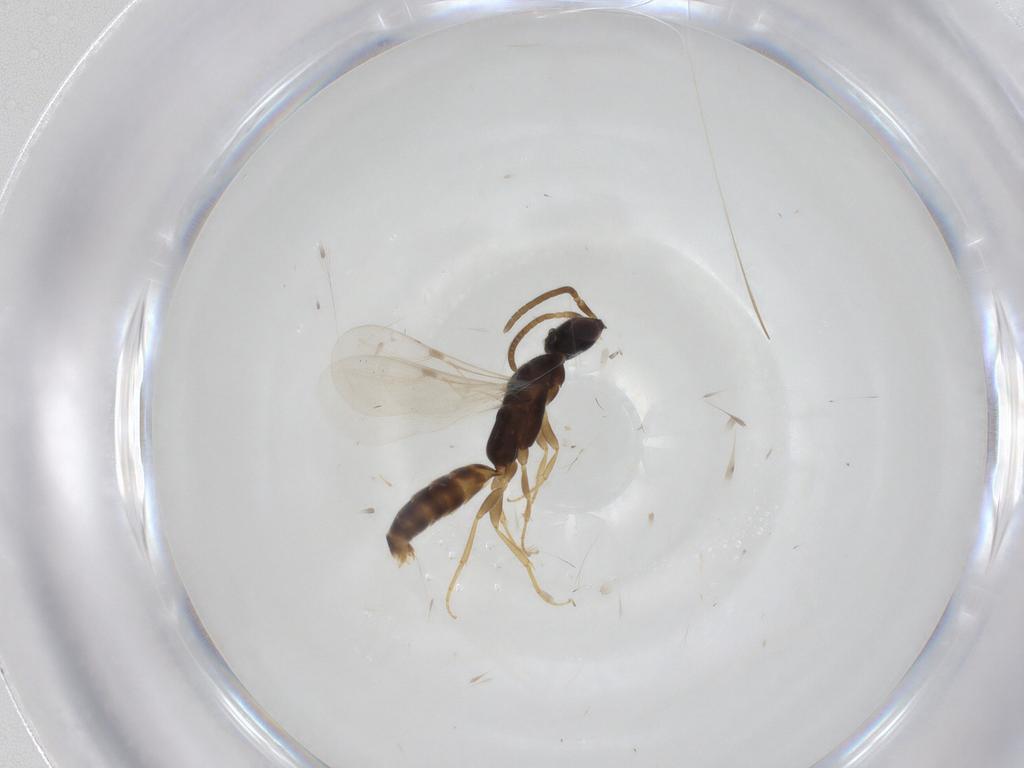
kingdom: Animalia
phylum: Arthropoda
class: Insecta
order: Hymenoptera
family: Bethylidae
